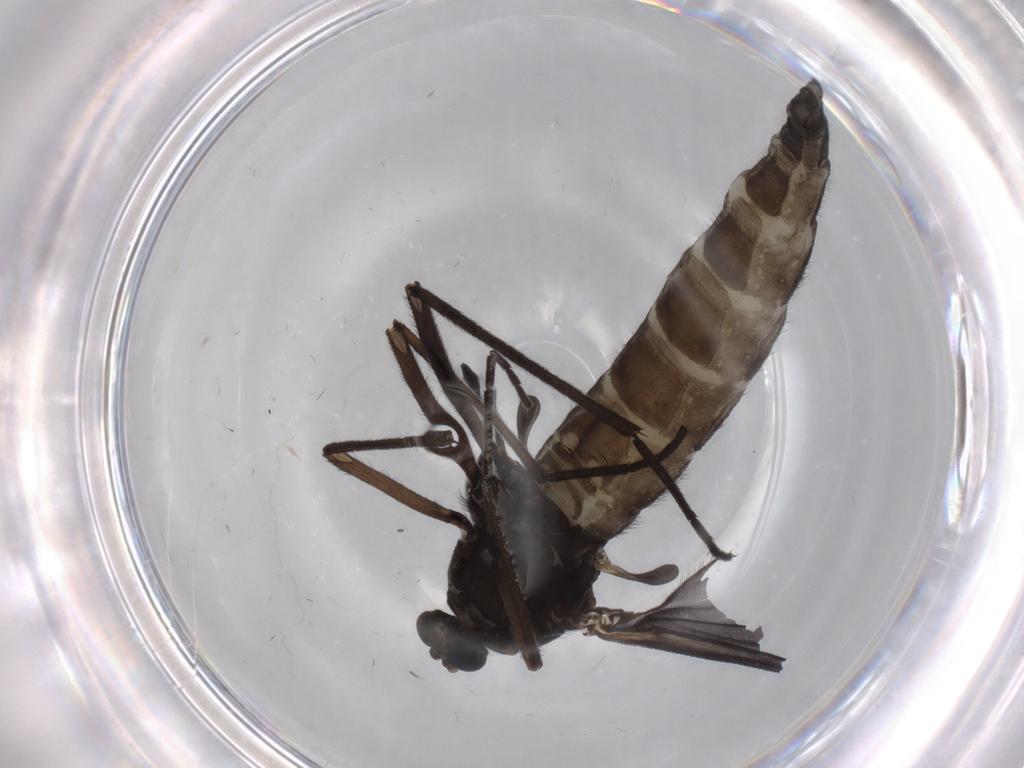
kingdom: Animalia
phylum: Arthropoda
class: Insecta
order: Diptera
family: Sciaridae
